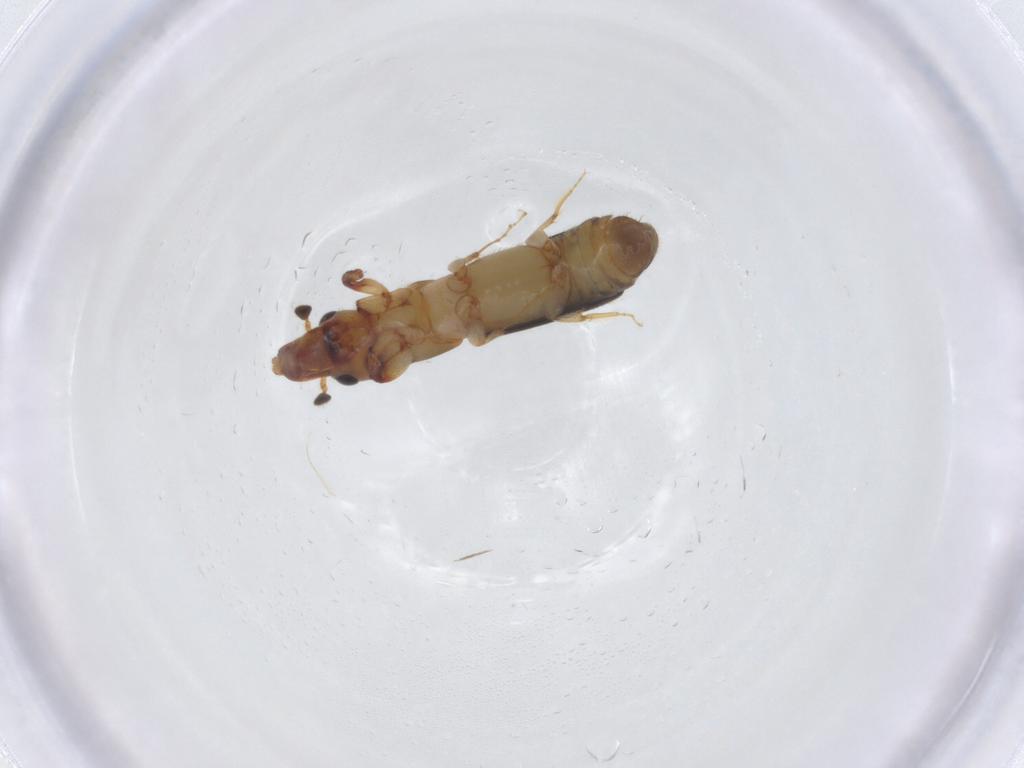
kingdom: Animalia
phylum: Arthropoda
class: Insecta
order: Coleoptera
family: Curculionidae
